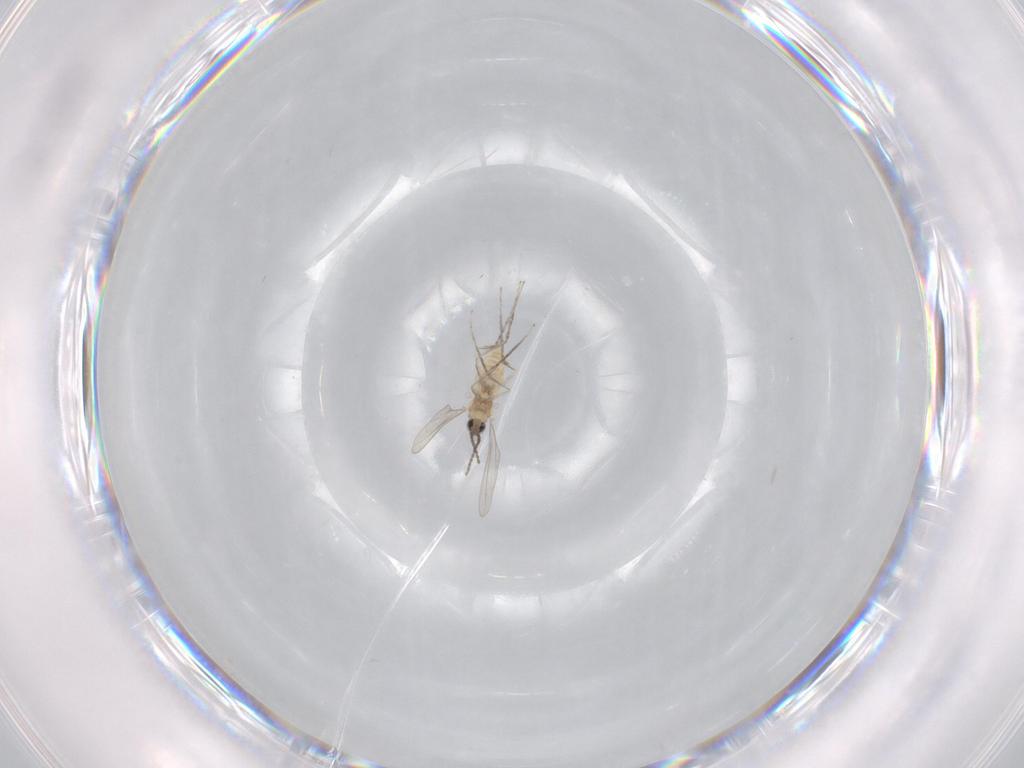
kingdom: Animalia
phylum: Arthropoda
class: Insecta
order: Diptera
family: Cecidomyiidae
